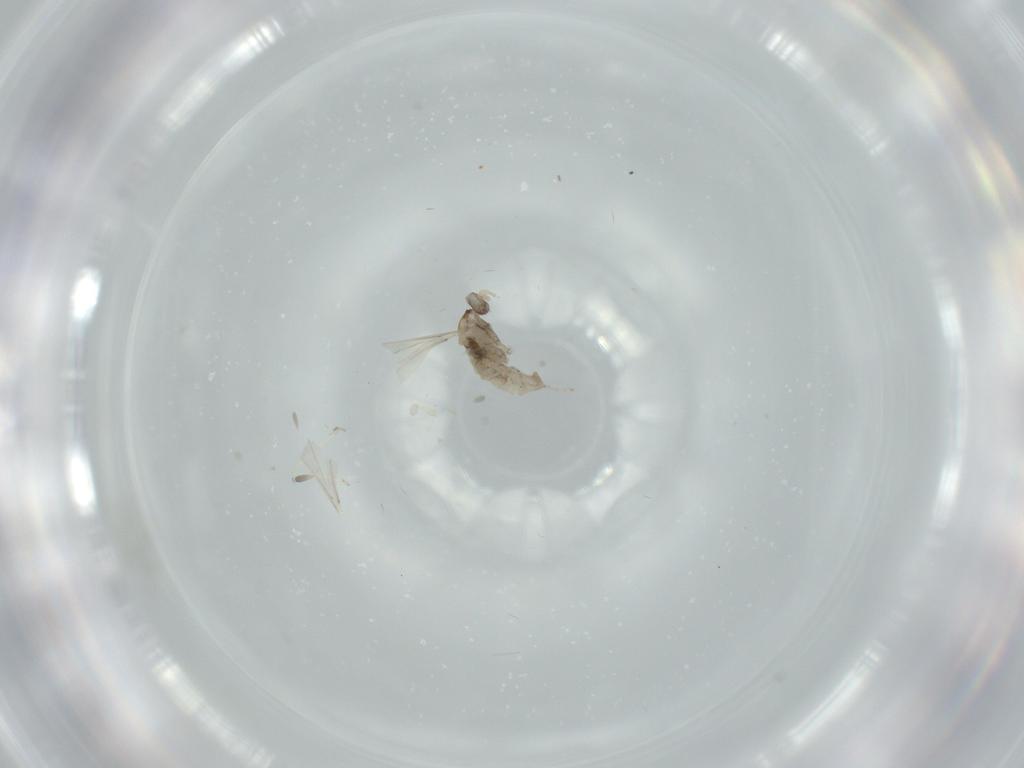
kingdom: Animalia
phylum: Arthropoda
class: Insecta
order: Diptera
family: Cecidomyiidae
